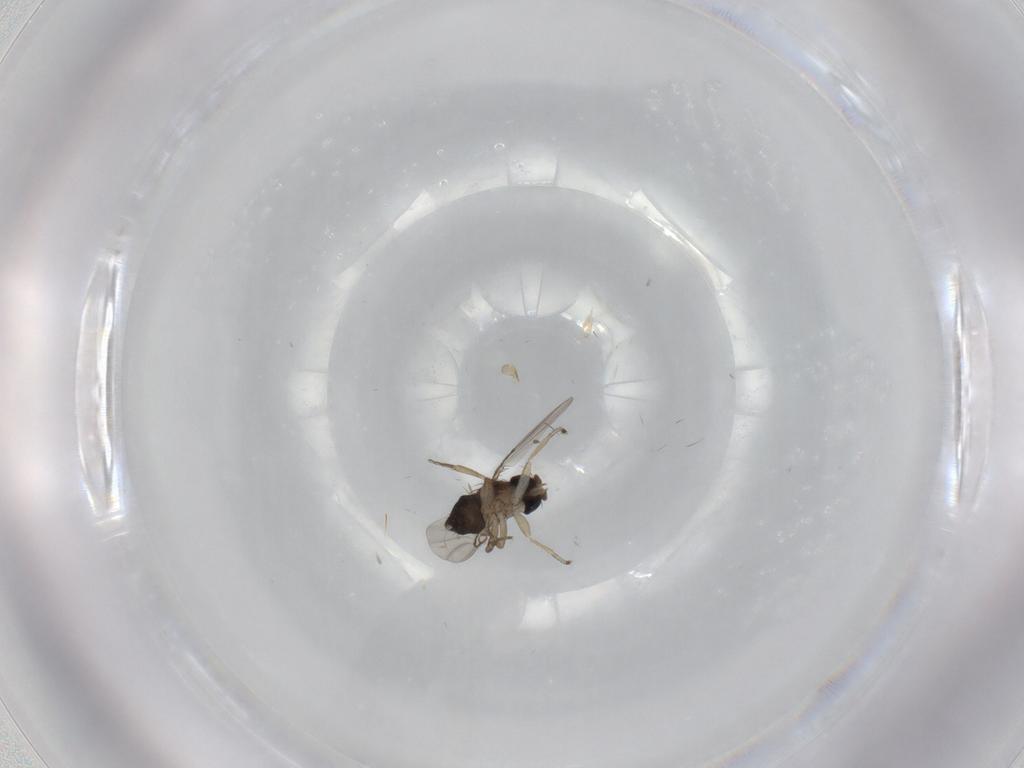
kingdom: Animalia
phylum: Arthropoda
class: Insecta
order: Diptera
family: Phoridae
